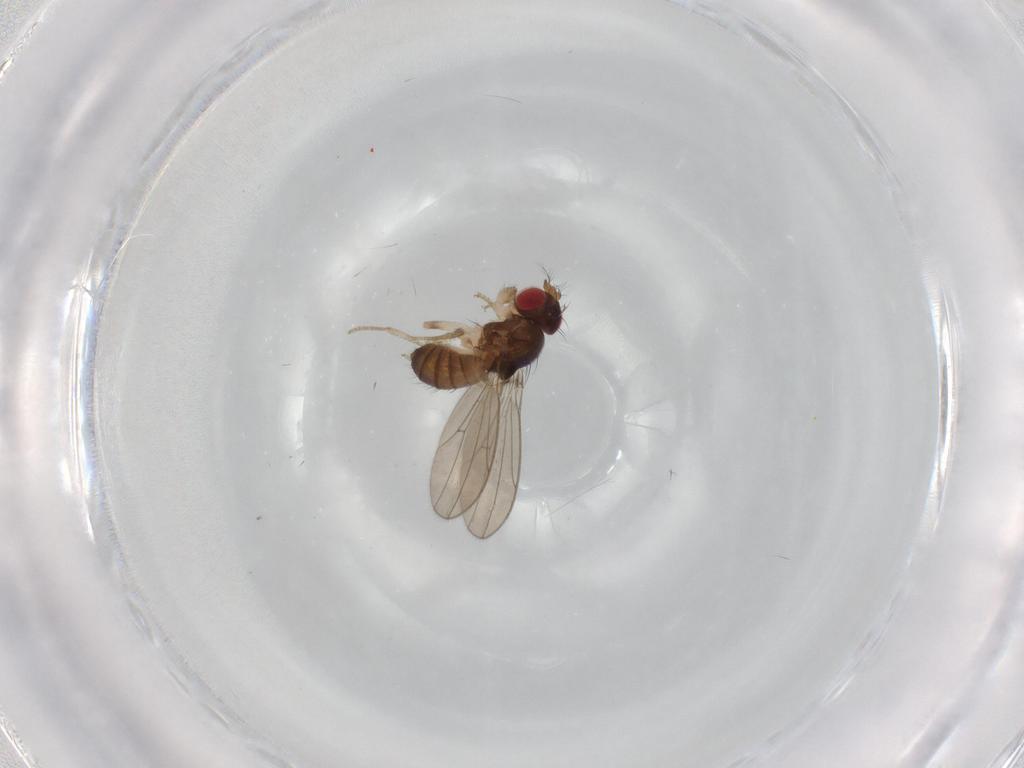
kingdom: Animalia
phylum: Arthropoda
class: Insecta
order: Diptera
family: Drosophilidae
